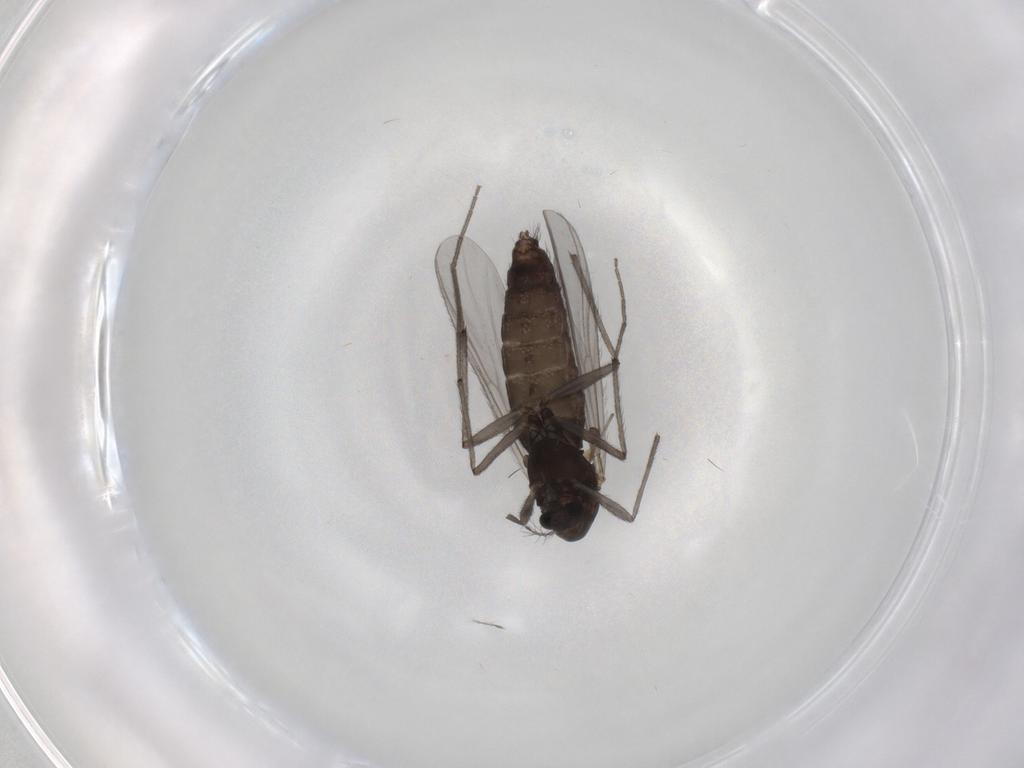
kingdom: Animalia
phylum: Arthropoda
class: Insecta
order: Diptera
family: Chironomidae
